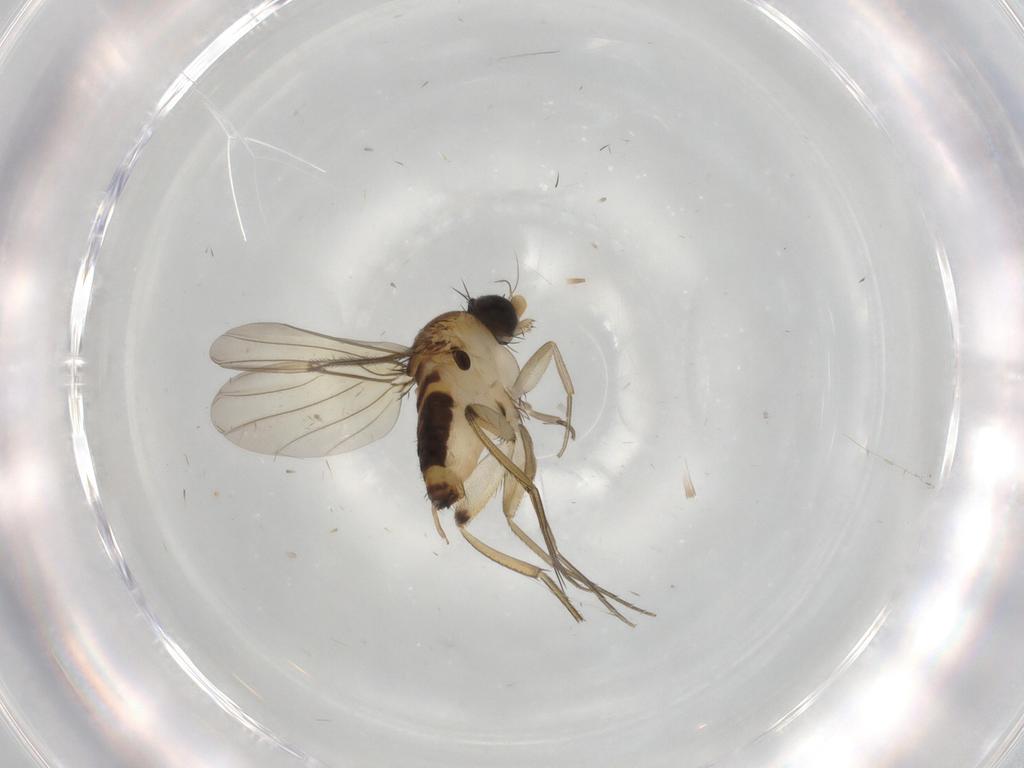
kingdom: Animalia
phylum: Arthropoda
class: Insecta
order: Diptera
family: Phoridae
